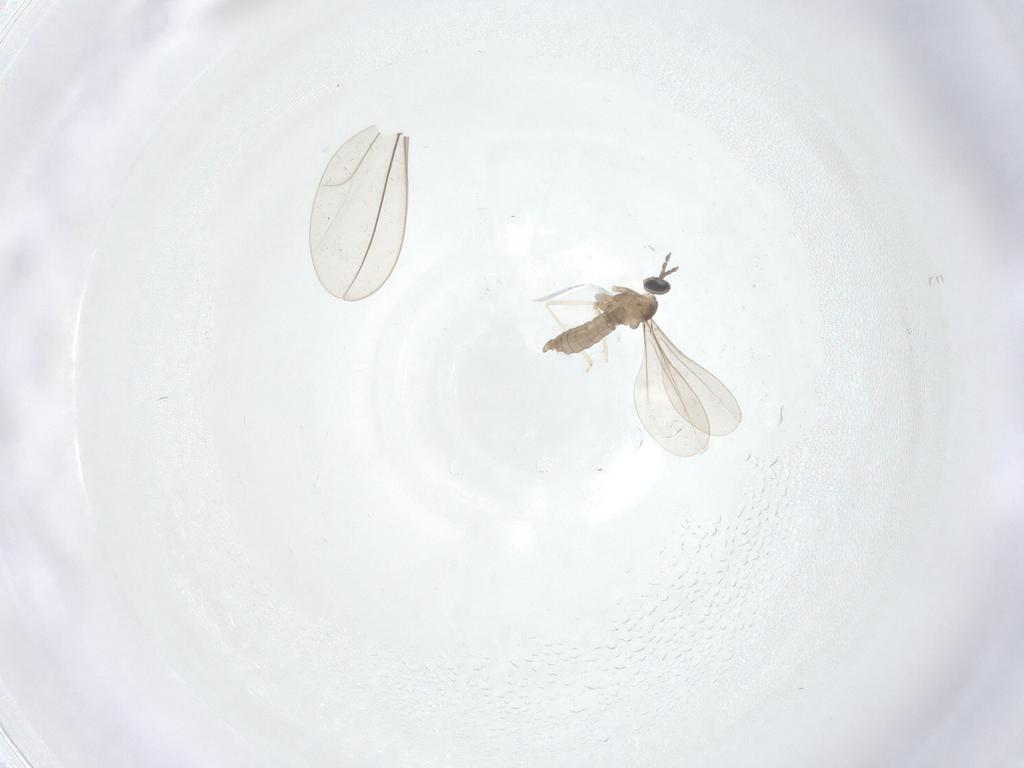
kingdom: Animalia
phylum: Arthropoda
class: Insecta
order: Diptera
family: Cecidomyiidae
